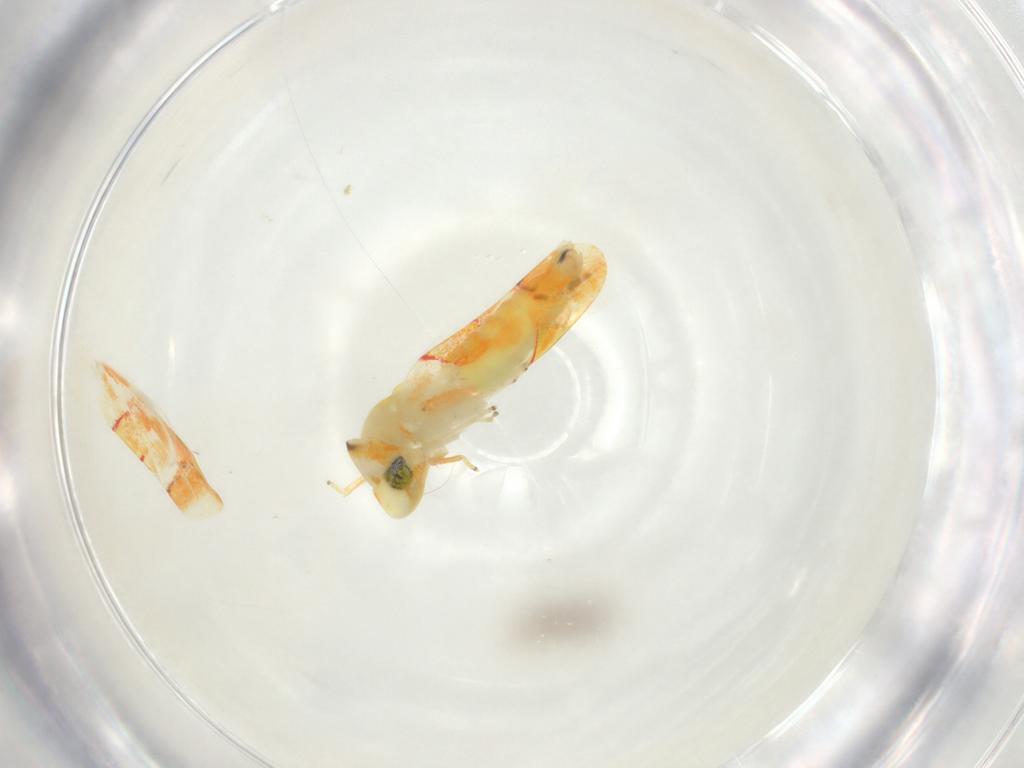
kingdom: Animalia
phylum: Arthropoda
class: Insecta
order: Hemiptera
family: Cicadellidae
